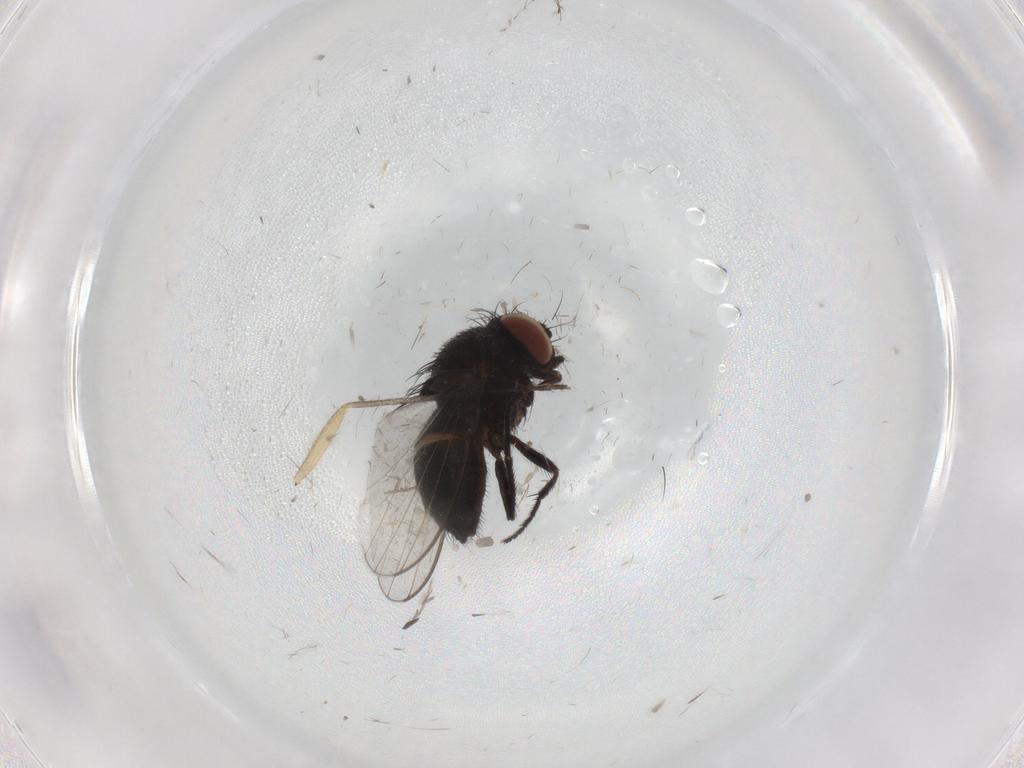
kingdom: Animalia
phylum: Arthropoda
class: Insecta
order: Diptera
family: Milichiidae
